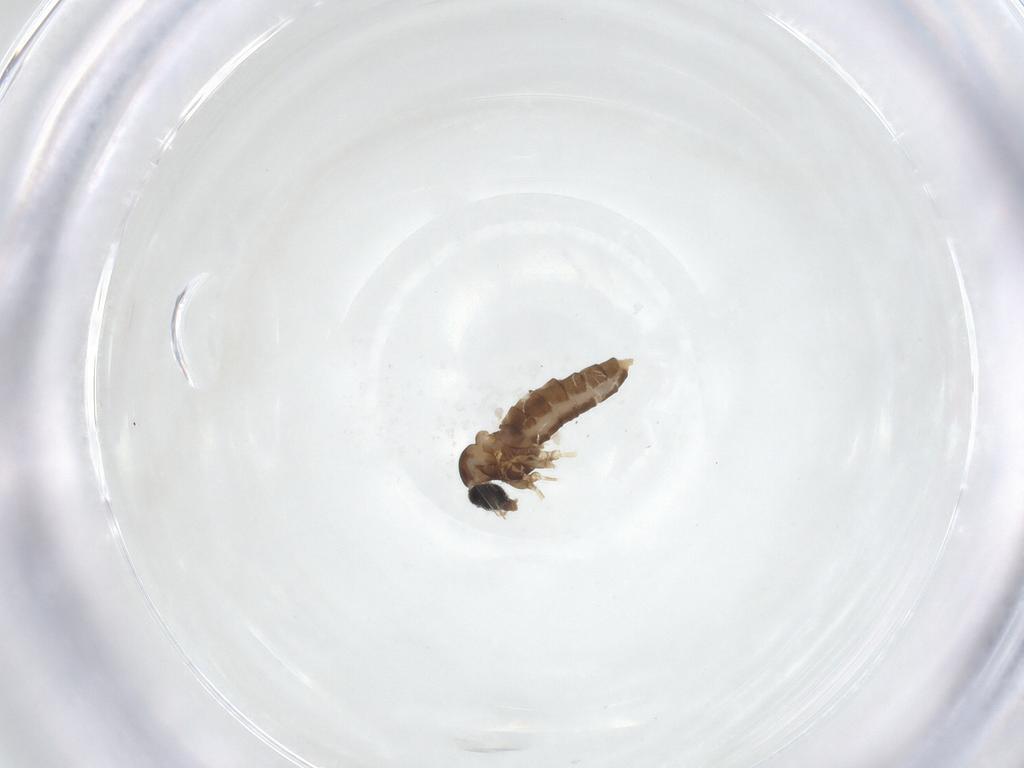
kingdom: Animalia
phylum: Arthropoda
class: Insecta
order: Diptera
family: Cecidomyiidae
